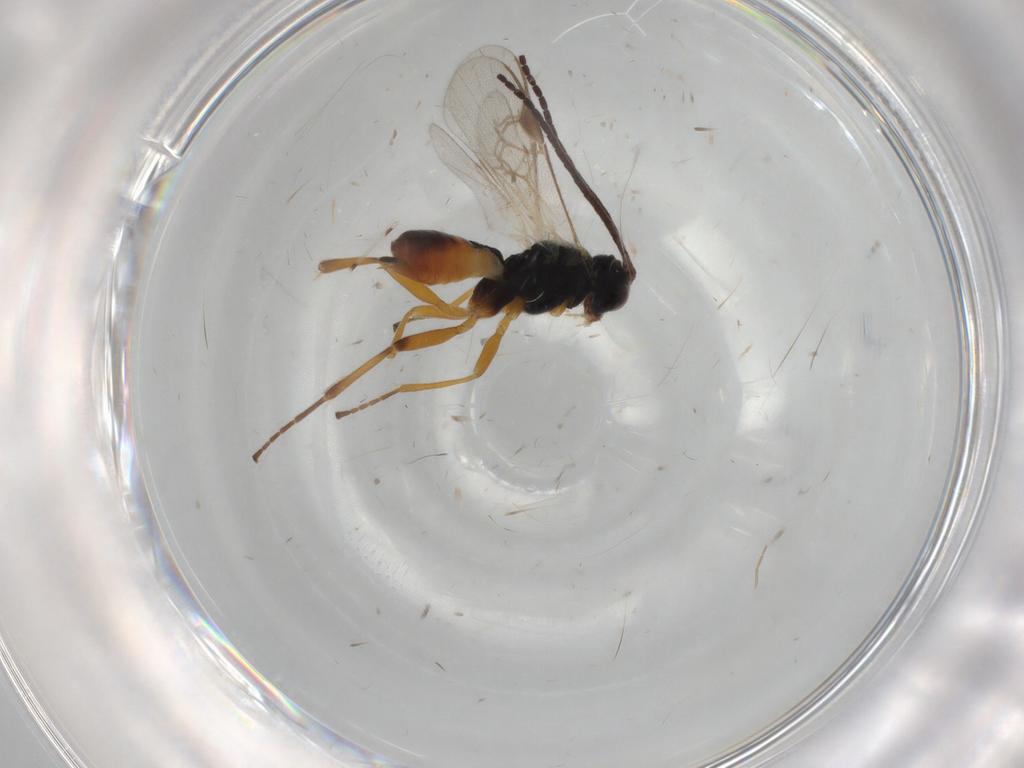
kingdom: Animalia
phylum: Arthropoda
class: Insecta
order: Hymenoptera
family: Braconidae
